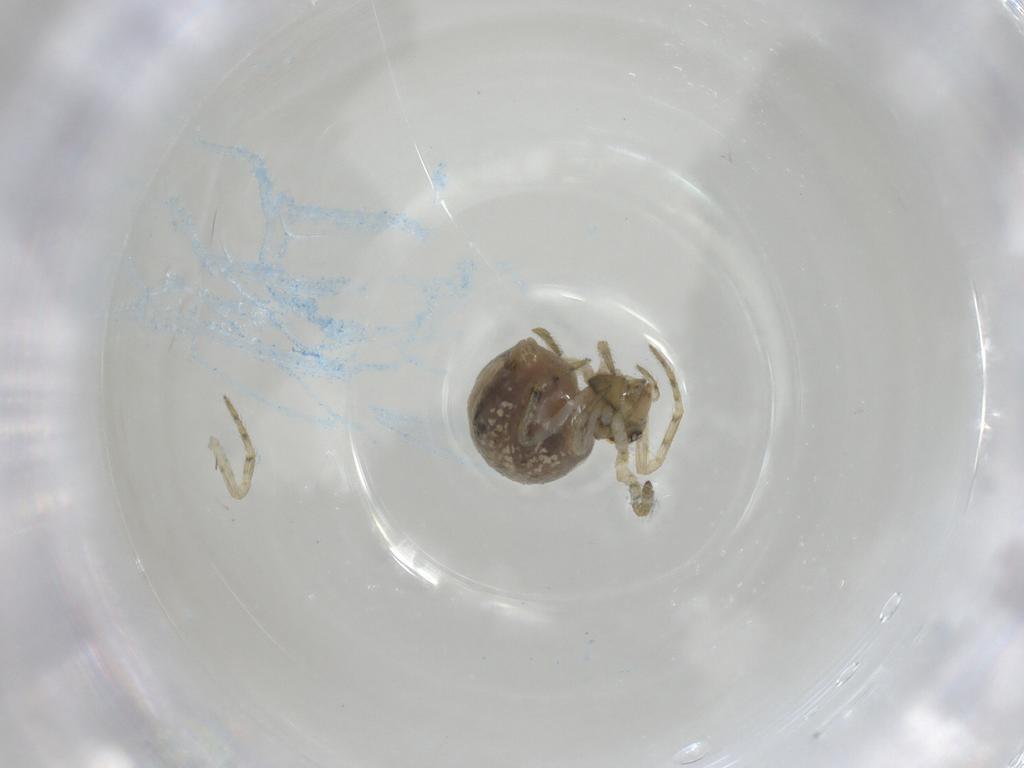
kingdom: Animalia
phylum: Arthropoda
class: Arachnida
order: Araneae
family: Theridiidae
